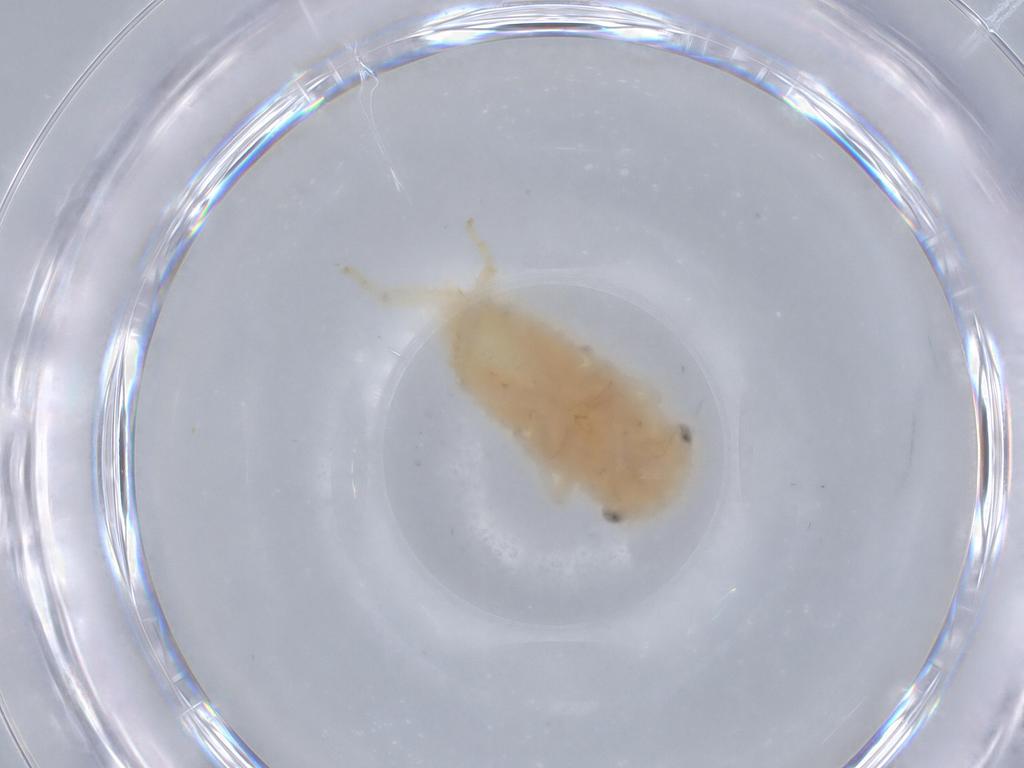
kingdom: Animalia
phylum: Arthropoda
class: Insecta
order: Hemiptera
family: Cicadellidae
